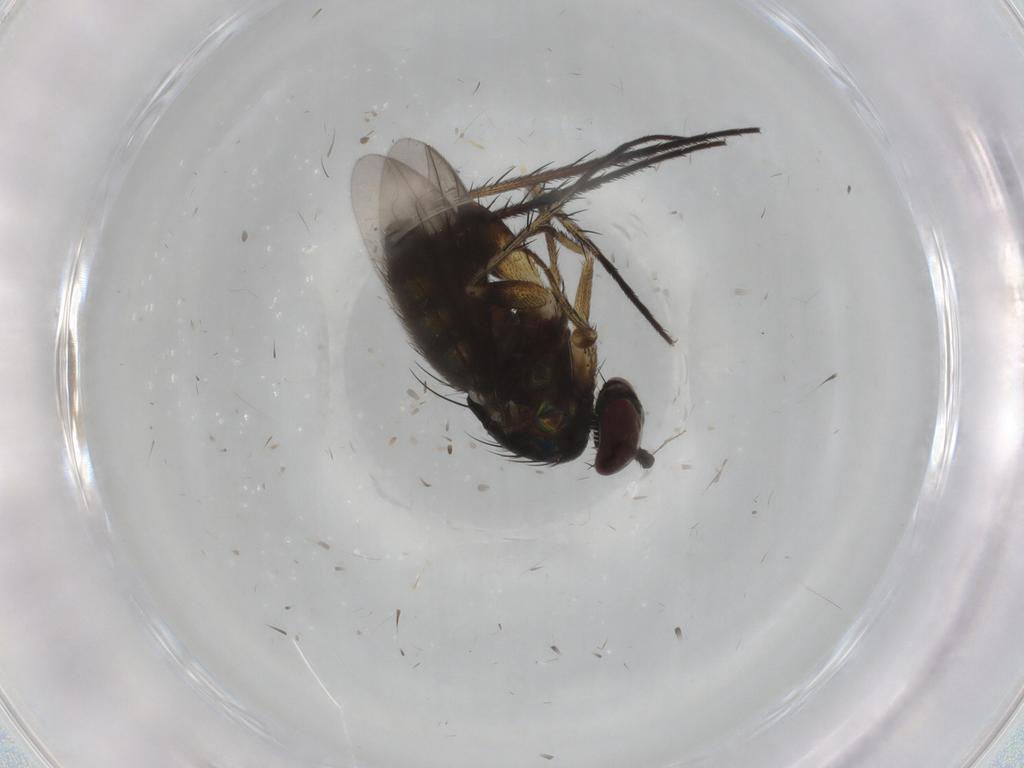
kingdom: Animalia
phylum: Arthropoda
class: Insecta
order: Diptera
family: Dolichopodidae
